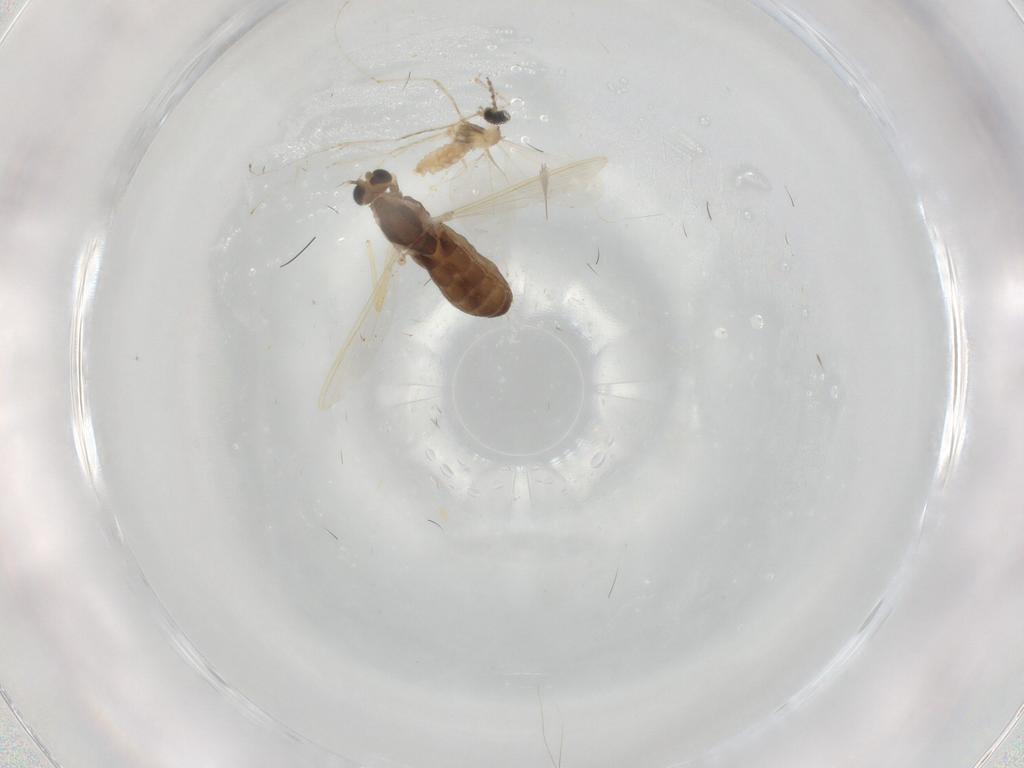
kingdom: Animalia
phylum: Arthropoda
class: Insecta
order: Diptera
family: Chironomidae
